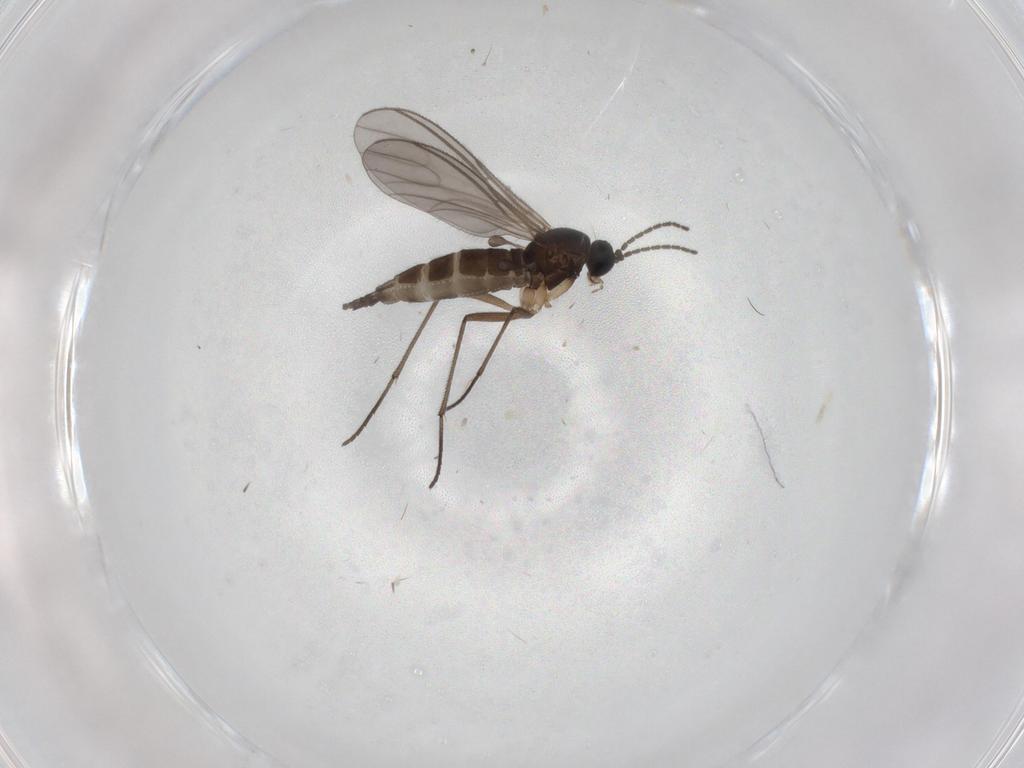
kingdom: Animalia
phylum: Arthropoda
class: Insecta
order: Diptera
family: Sciaridae
